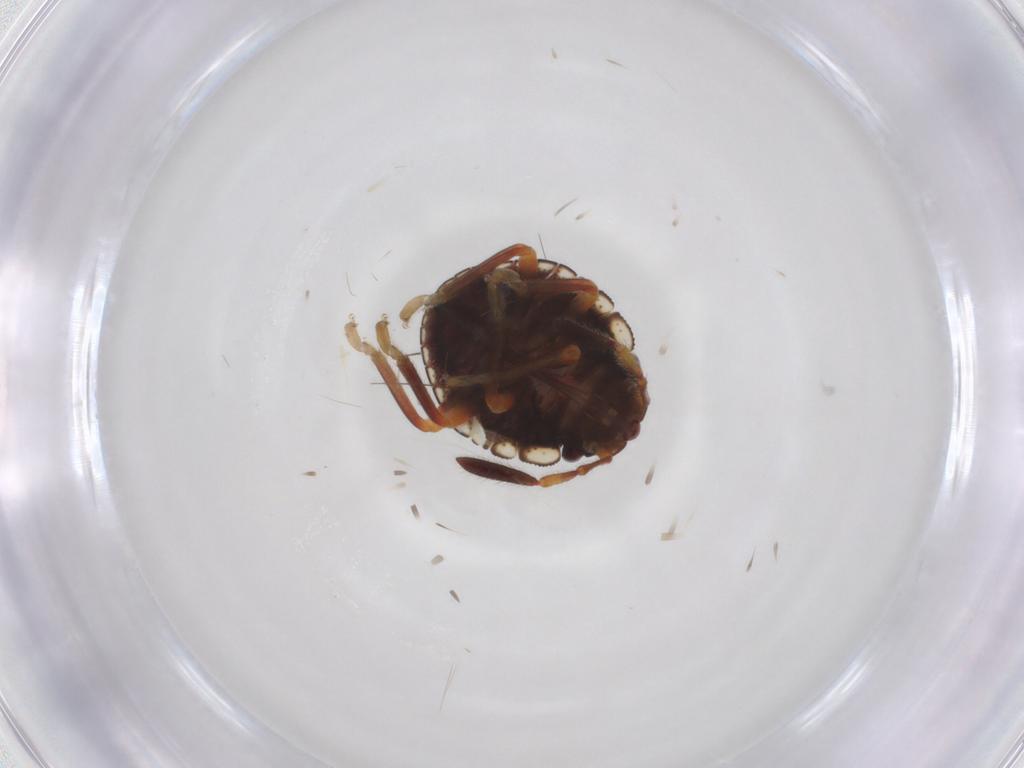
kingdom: Animalia
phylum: Arthropoda
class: Insecta
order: Hemiptera
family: Pentatomidae
